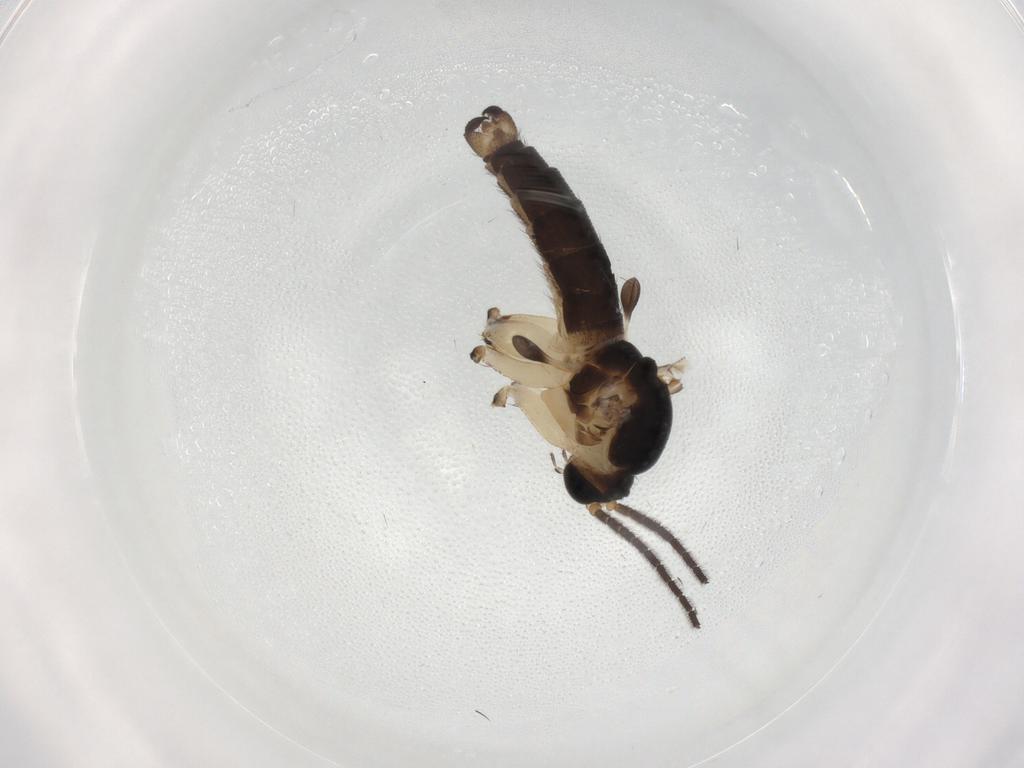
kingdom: Animalia
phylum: Arthropoda
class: Insecta
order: Diptera
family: Sciaridae
